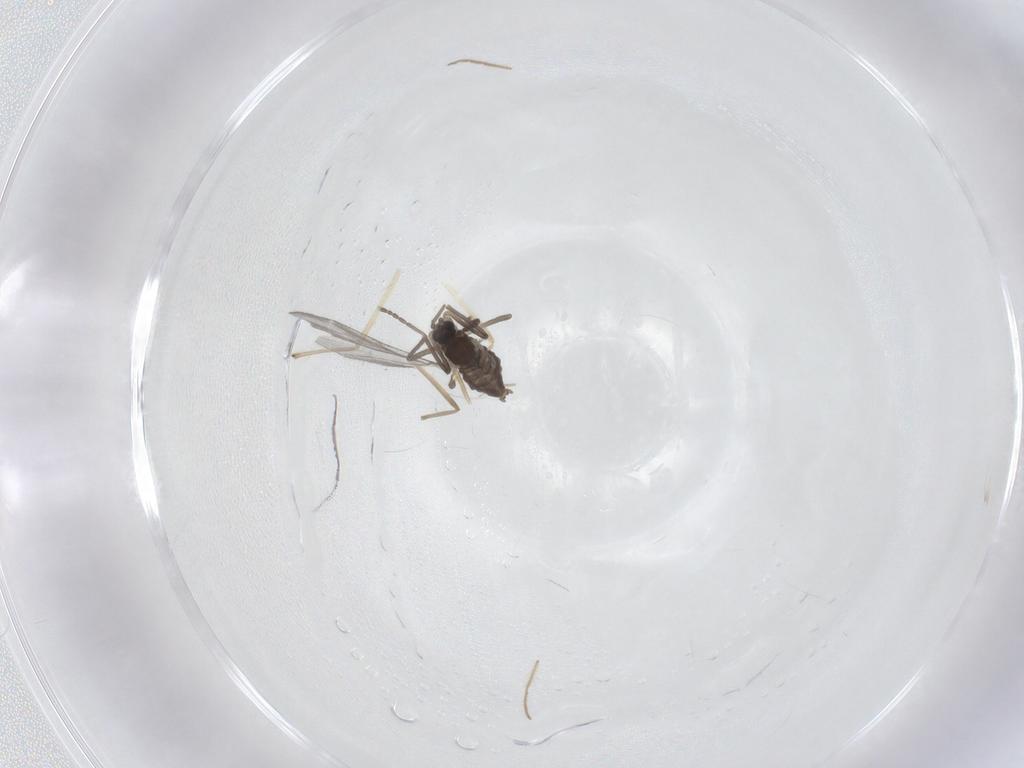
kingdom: Animalia
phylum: Arthropoda
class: Insecta
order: Diptera
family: Chironomidae
